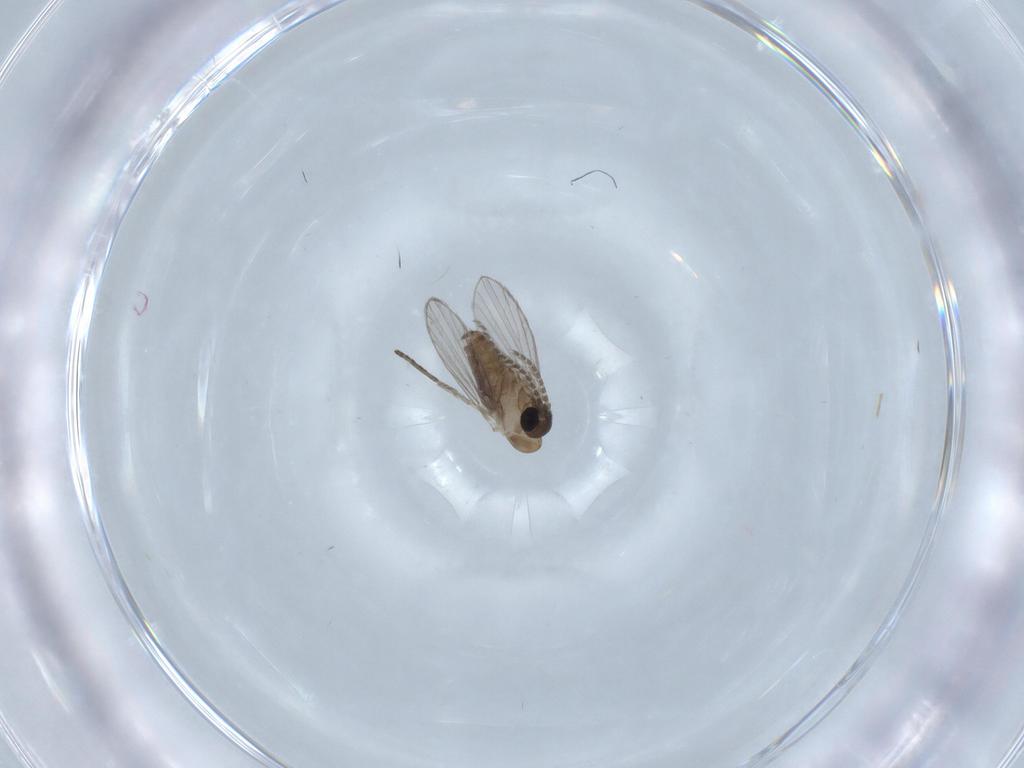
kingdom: Animalia
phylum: Arthropoda
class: Insecta
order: Diptera
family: Psychodidae
